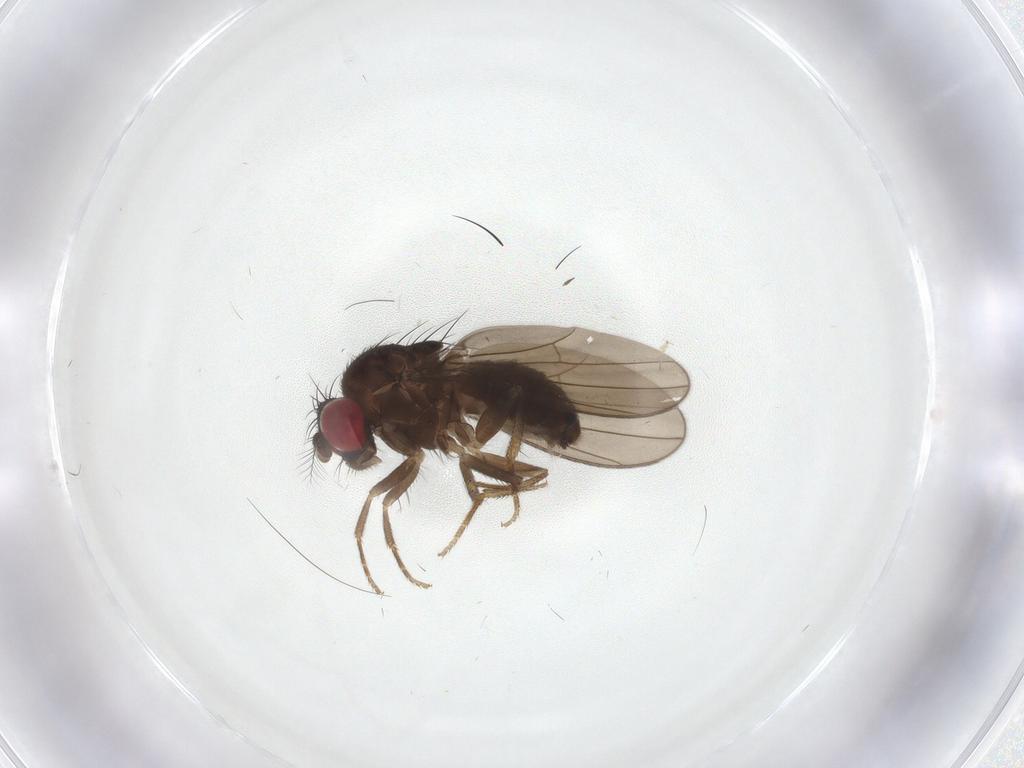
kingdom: Animalia
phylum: Arthropoda
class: Insecta
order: Diptera
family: Drosophilidae
